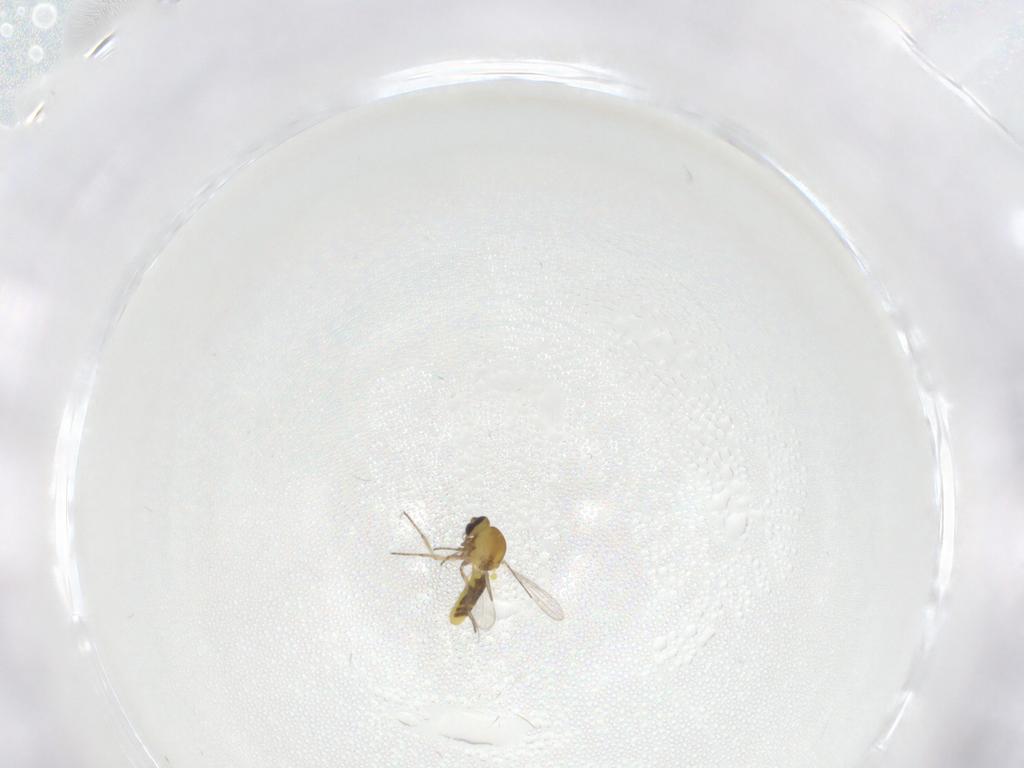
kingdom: Animalia
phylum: Arthropoda
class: Insecta
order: Diptera
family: Ceratopogonidae
